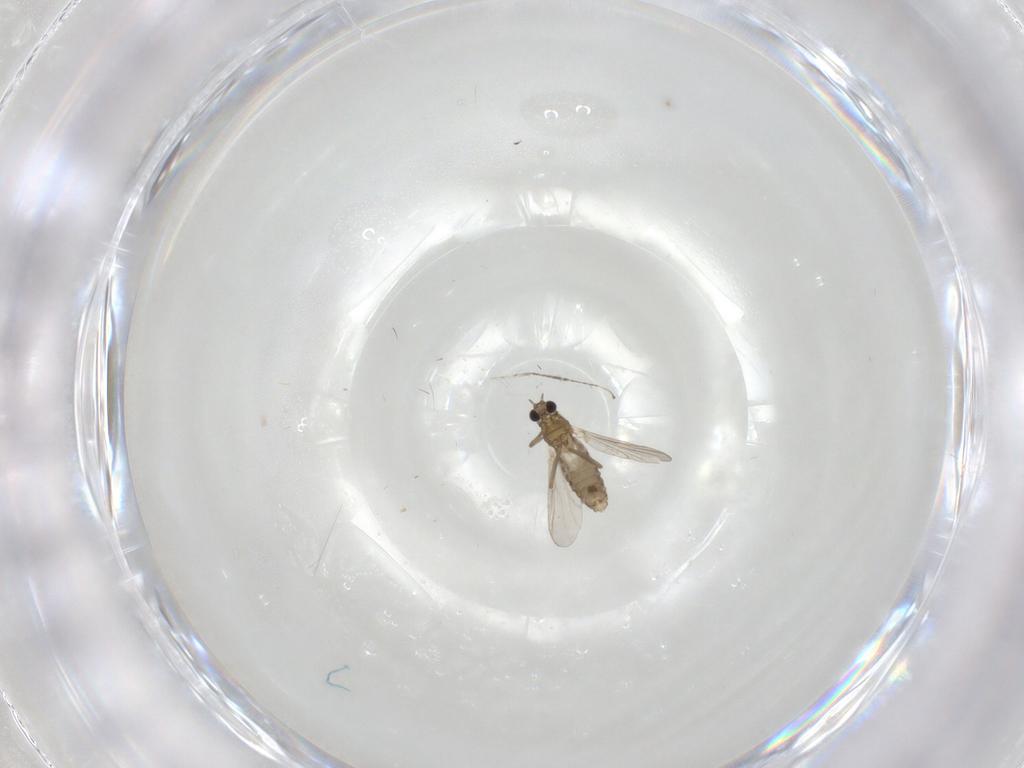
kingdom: Animalia
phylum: Arthropoda
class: Insecta
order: Diptera
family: Chironomidae
